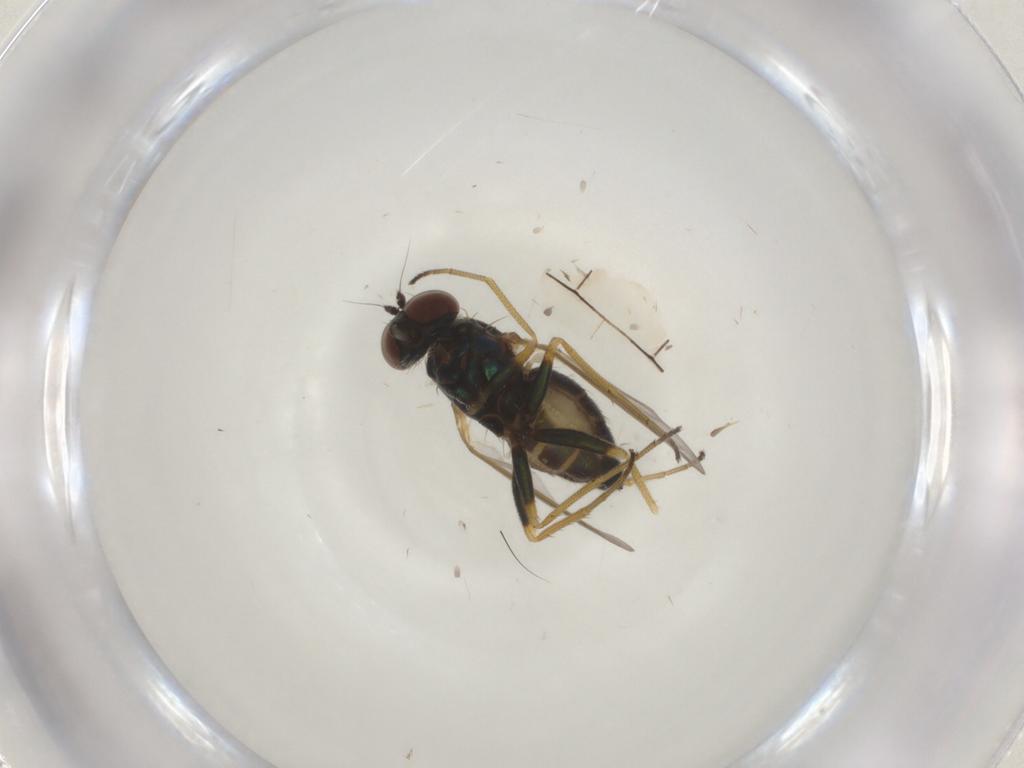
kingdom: Animalia
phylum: Arthropoda
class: Insecta
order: Diptera
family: Dolichopodidae
